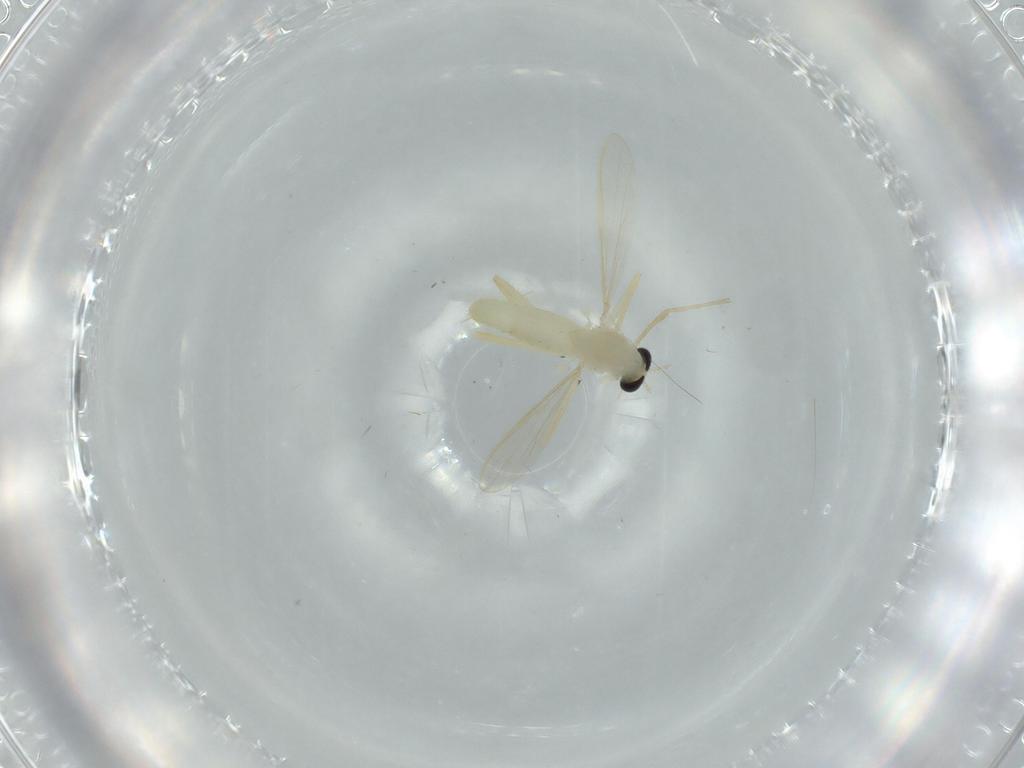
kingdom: Animalia
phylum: Arthropoda
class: Insecta
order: Diptera
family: Chironomidae
